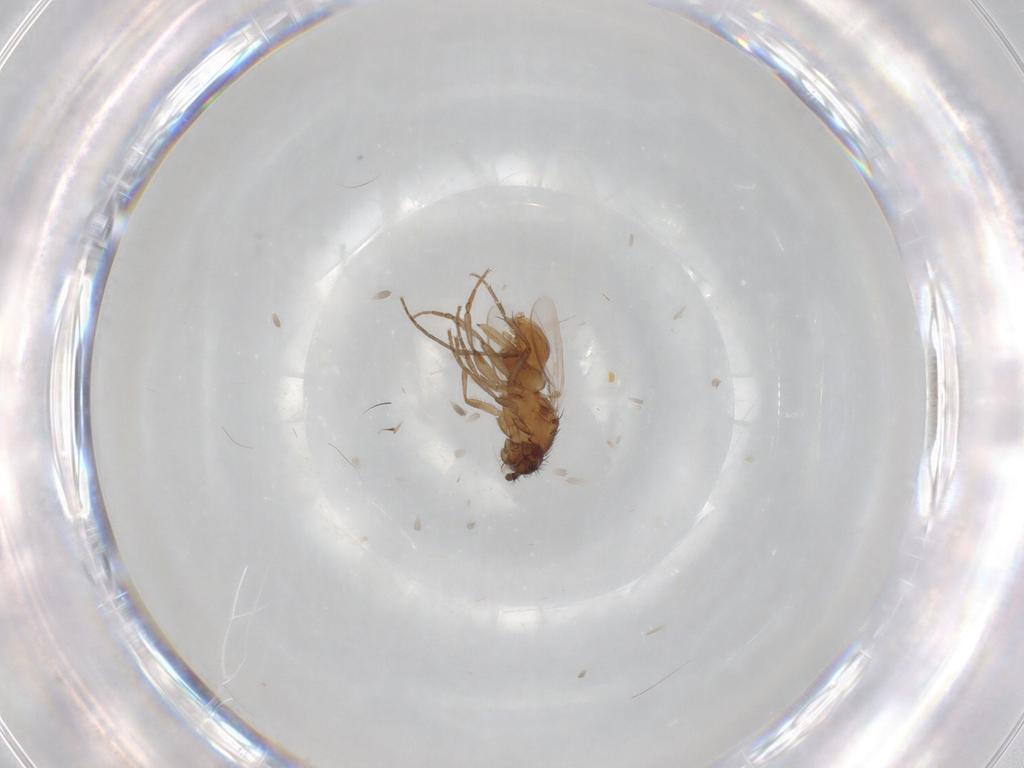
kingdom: Animalia
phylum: Arthropoda
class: Insecta
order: Diptera
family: Sphaeroceridae
